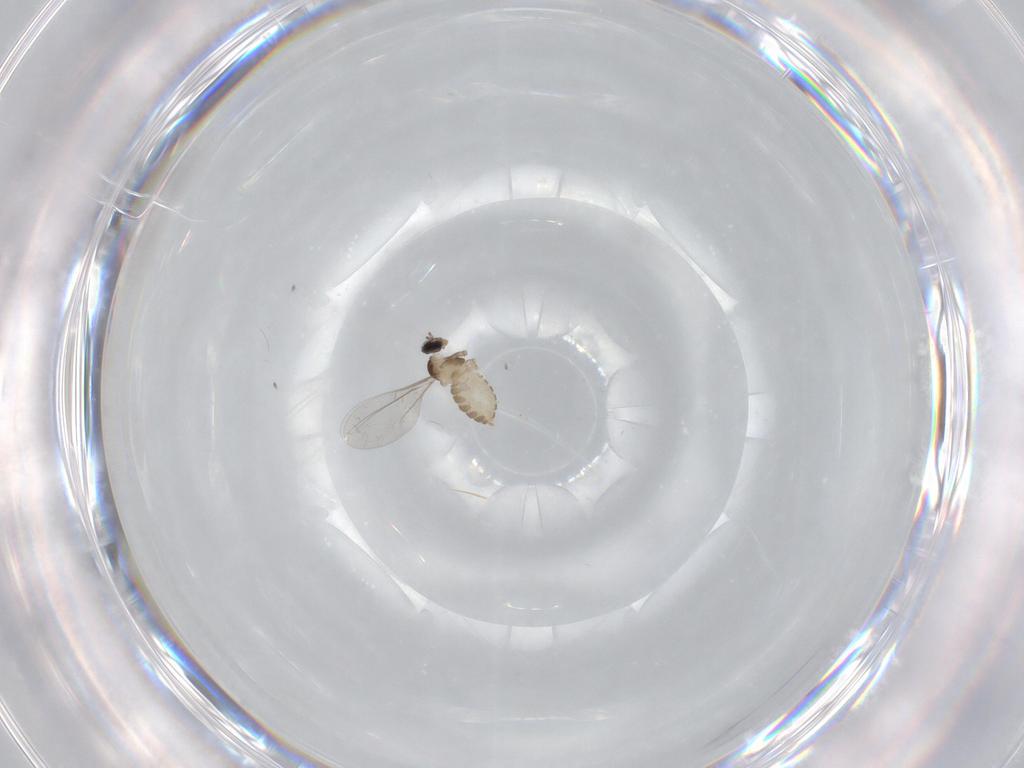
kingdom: Animalia
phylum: Arthropoda
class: Insecta
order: Diptera
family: Cecidomyiidae
